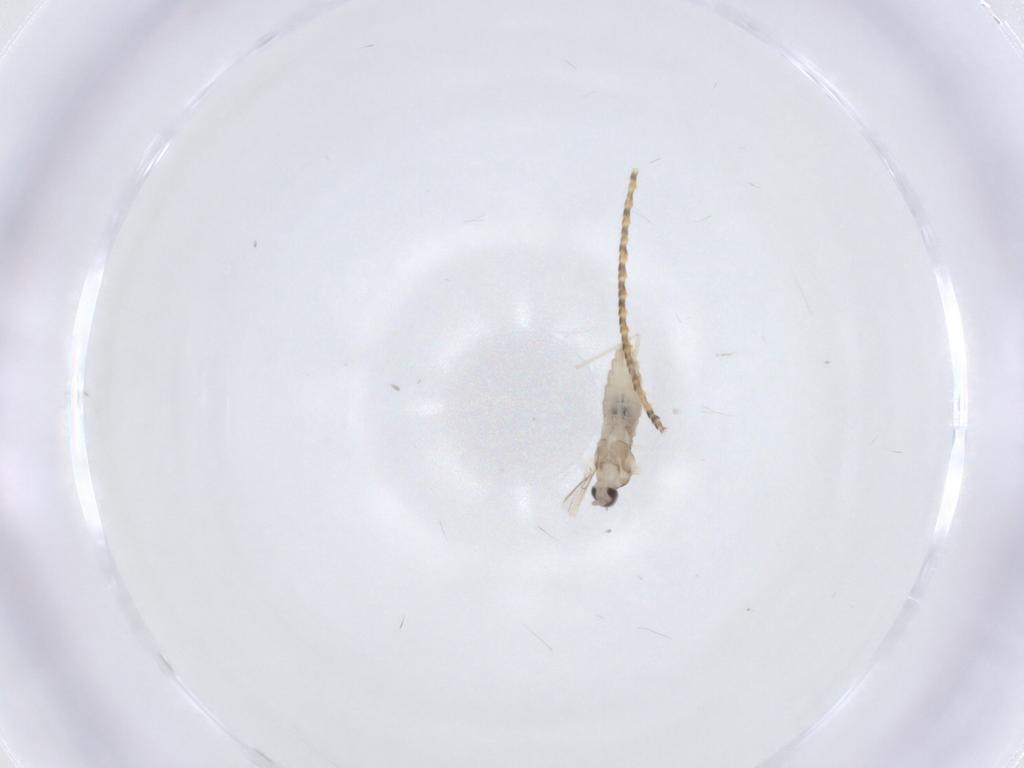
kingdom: Animalia
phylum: Arthropoda
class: Insecta
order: Diptera
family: Cecidomyiidae
